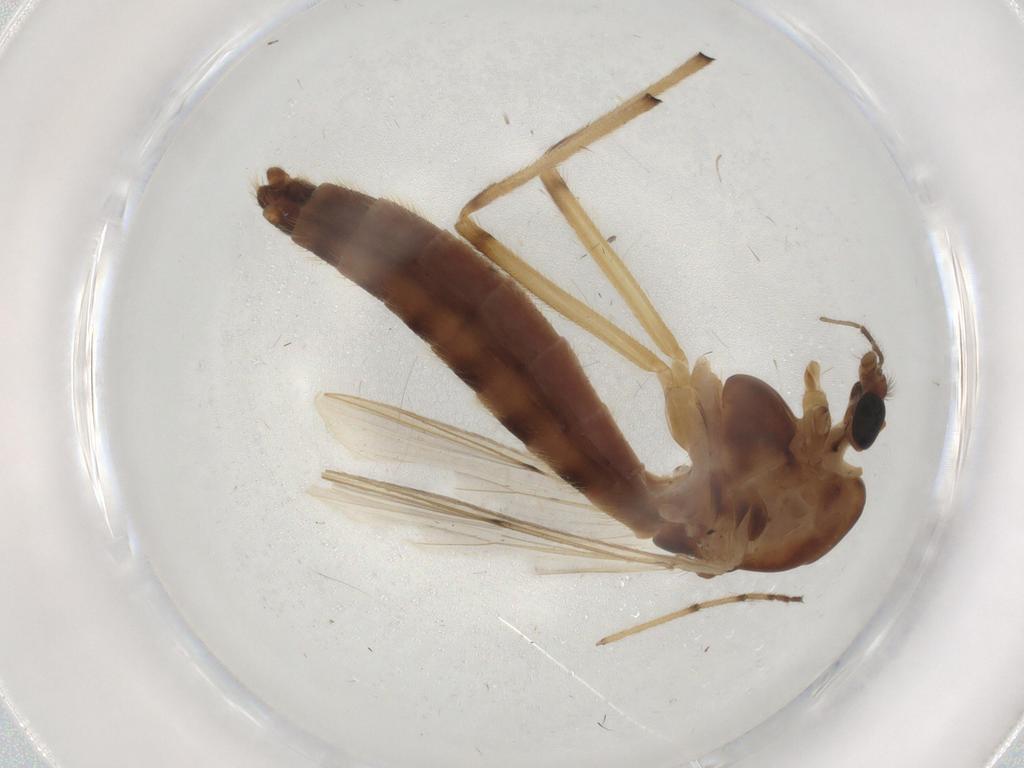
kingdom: Animalia
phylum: Arthropoda
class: Insecta
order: Diptera
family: Chironomidae
